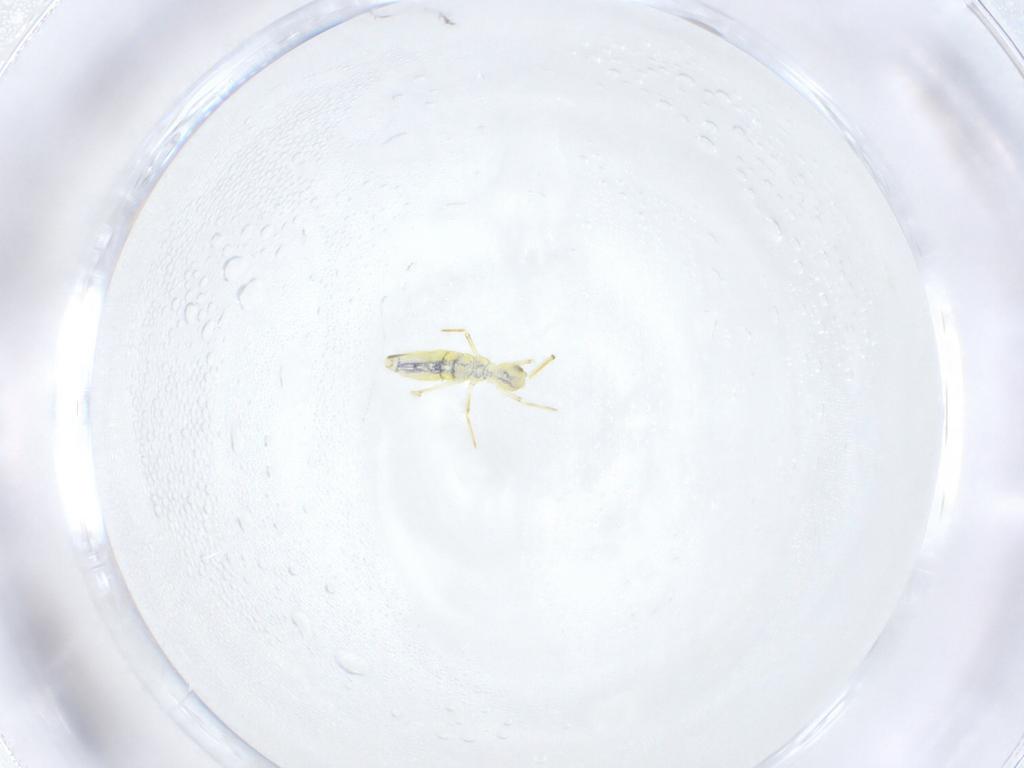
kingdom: Animalia
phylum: Arthropoda
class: Collembola
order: Entomobryomorpha
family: Paronellidae
